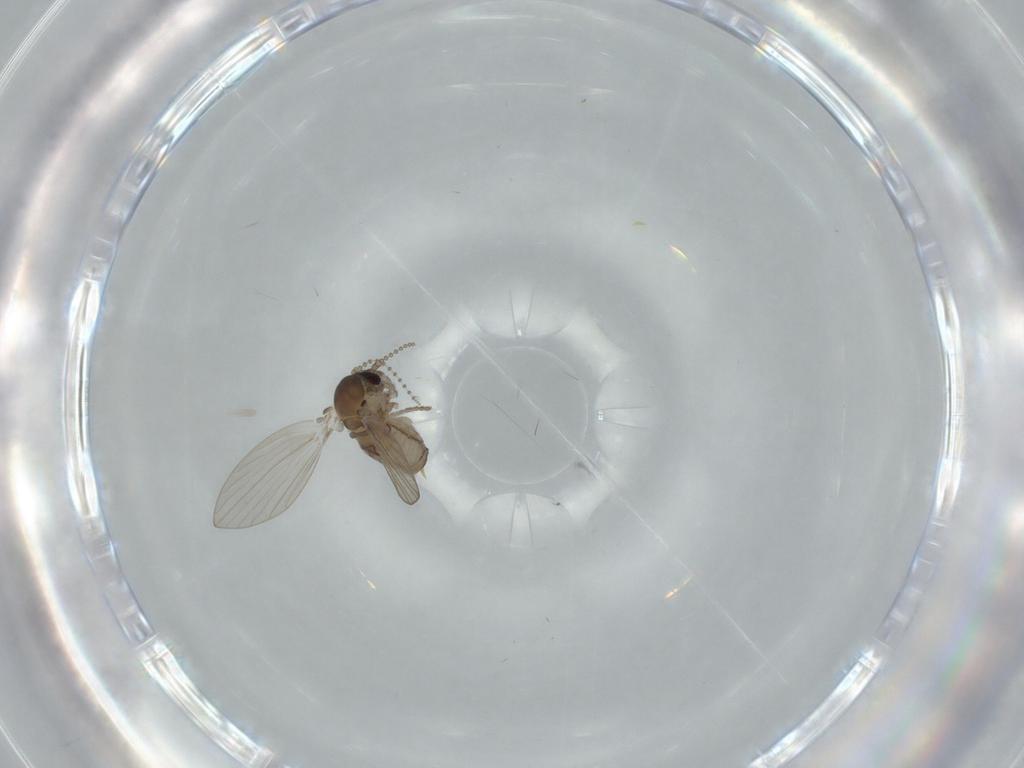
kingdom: Animalia
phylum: Arthropoda
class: Insecta
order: Diptera
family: Psychodidae
